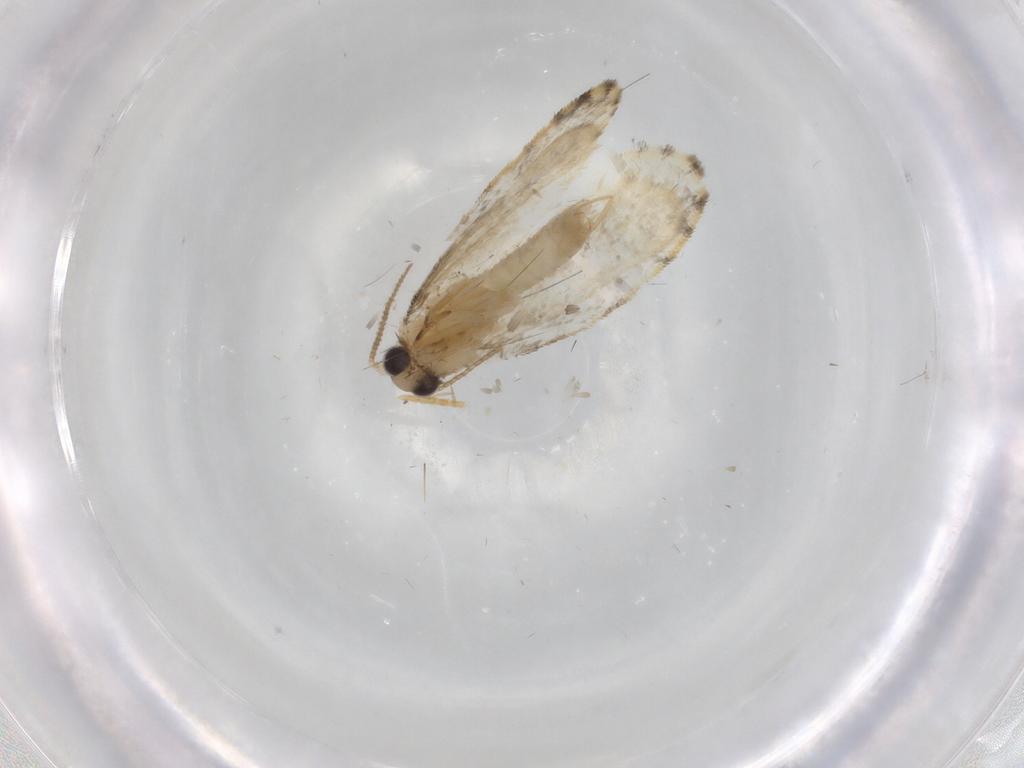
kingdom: Animalia
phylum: Arthropoda
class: Insecta
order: Lepidoptera
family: Psychidae
